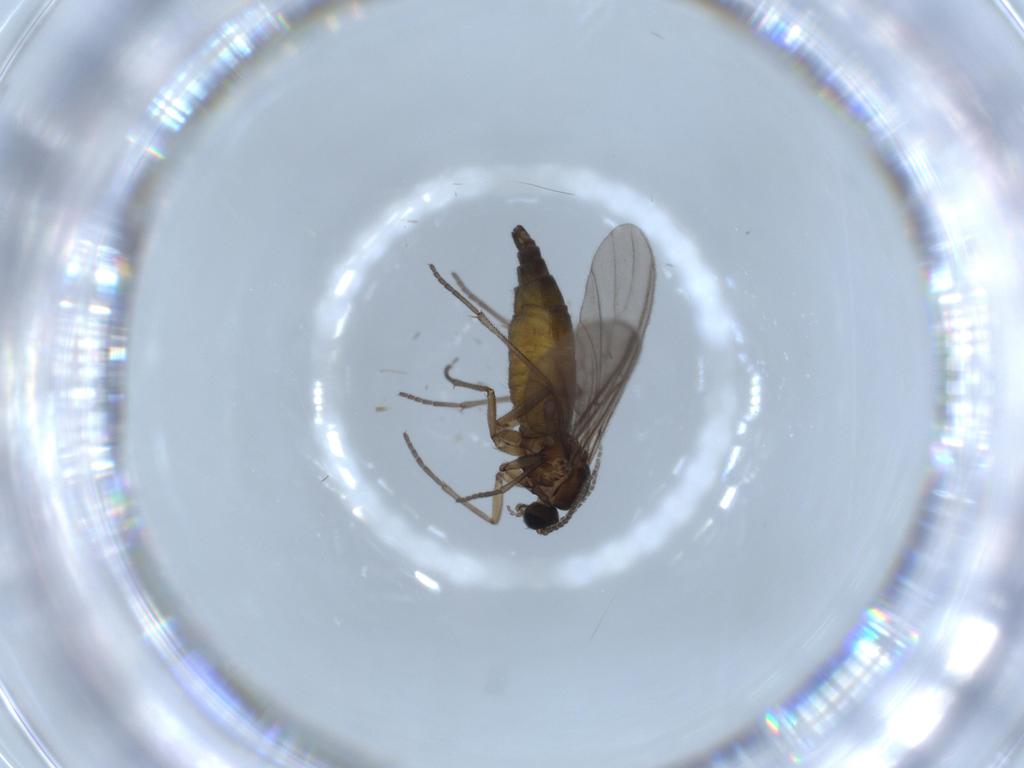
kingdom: Animalia
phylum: Arthropoda
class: Insecta
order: Diptera
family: Sciaridae
